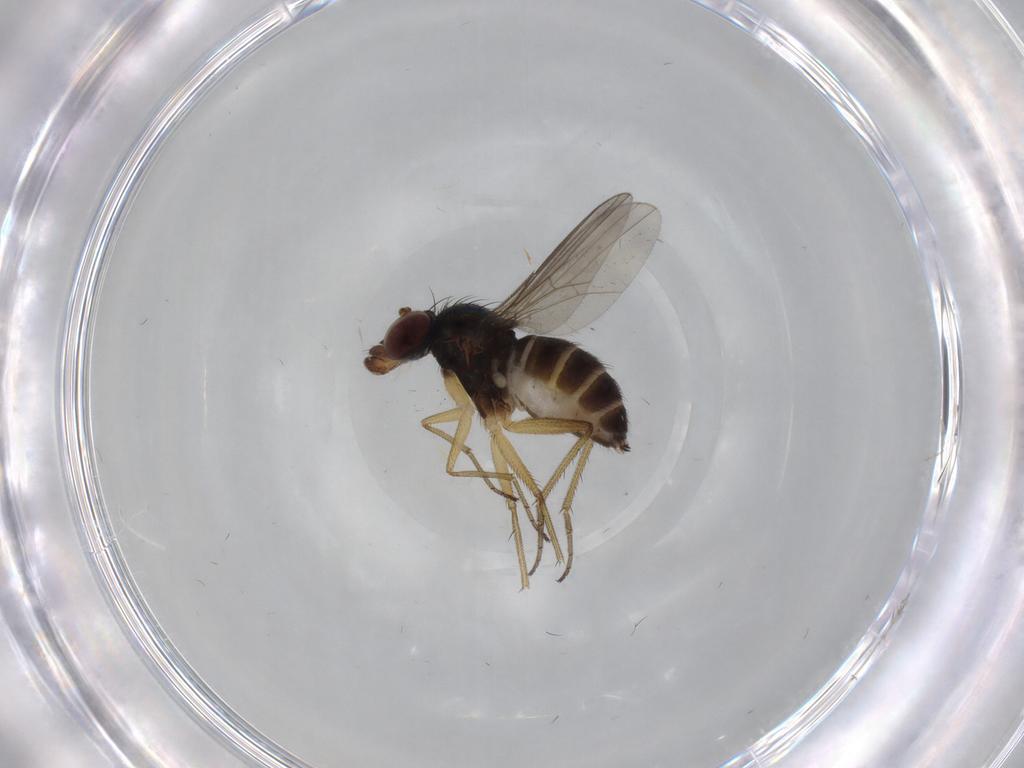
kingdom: Animalia
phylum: Arthropoda
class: Insecta
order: Diptera
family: Dolichopodidae
